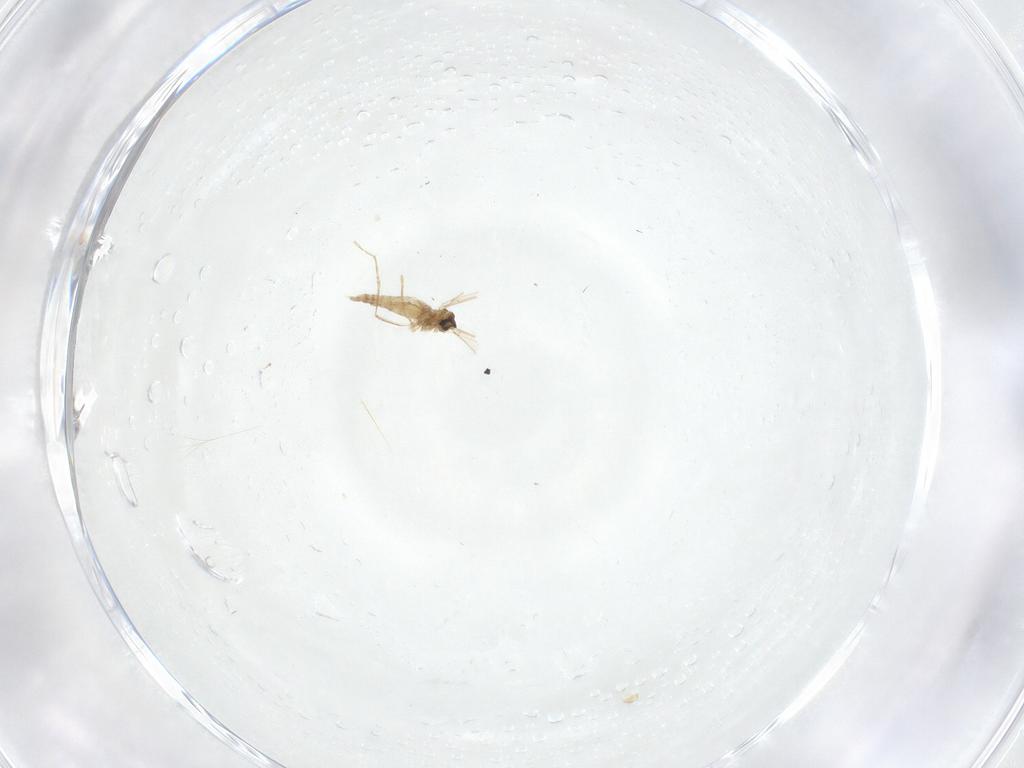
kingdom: Animalia
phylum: Arthropoda
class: Insecta
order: Diptera
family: Cecidomyiidae
